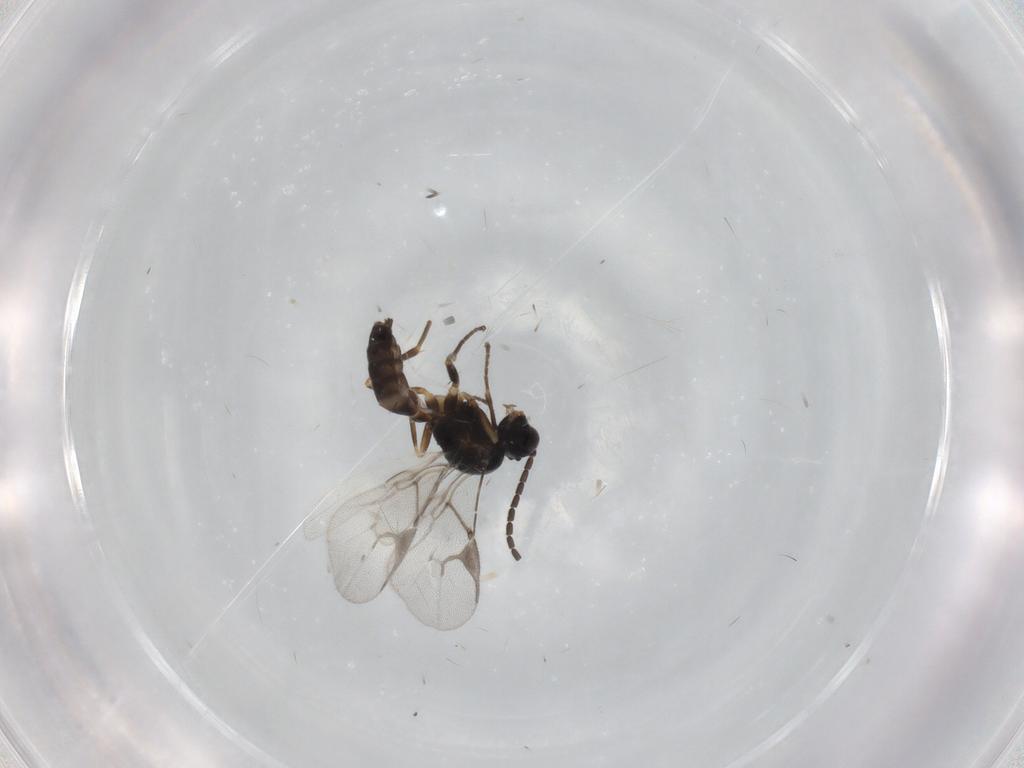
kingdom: Animalia
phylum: Arthropoda
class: Insecta
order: Hymenoptera
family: Braconidae
